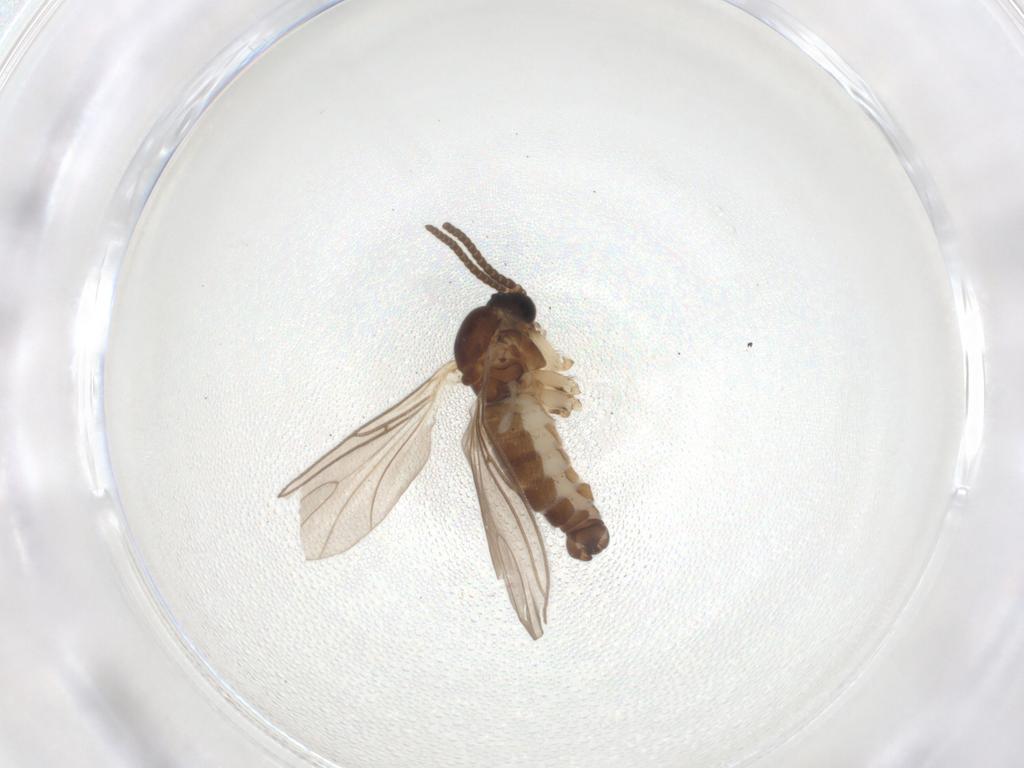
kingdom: Animalia
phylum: Arthropoda
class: Insecta
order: Diptera
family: Sciaridae
